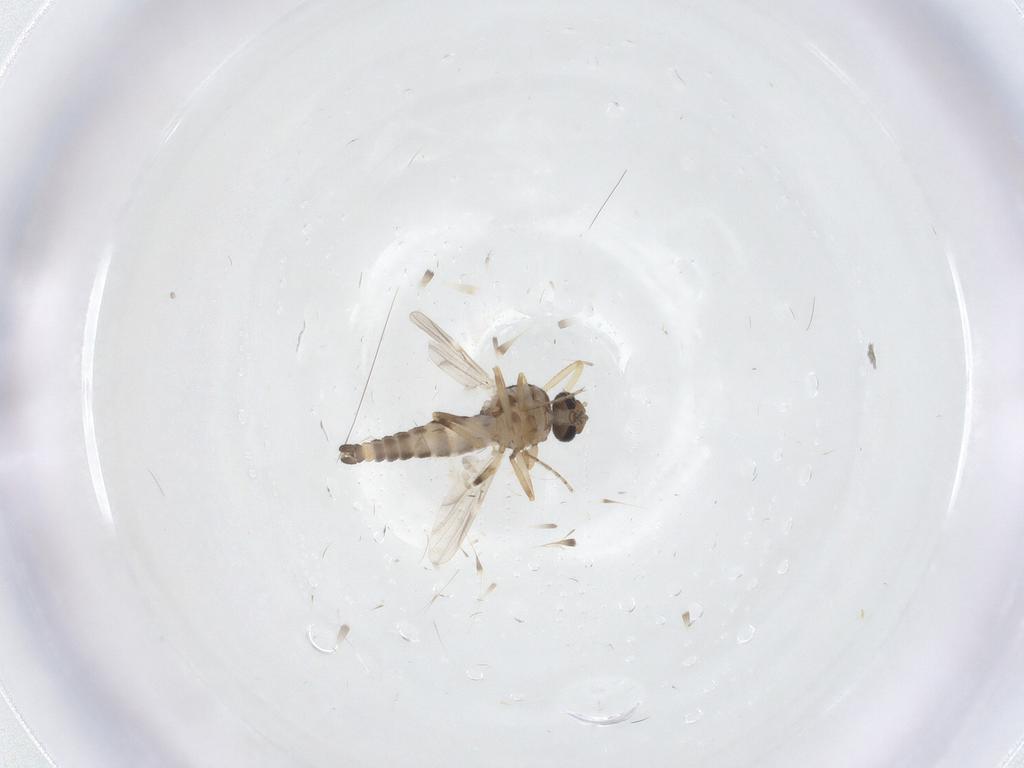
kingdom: Animalia
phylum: Arthropoda
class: Insecta
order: Diptera
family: Ceratopogonidae
